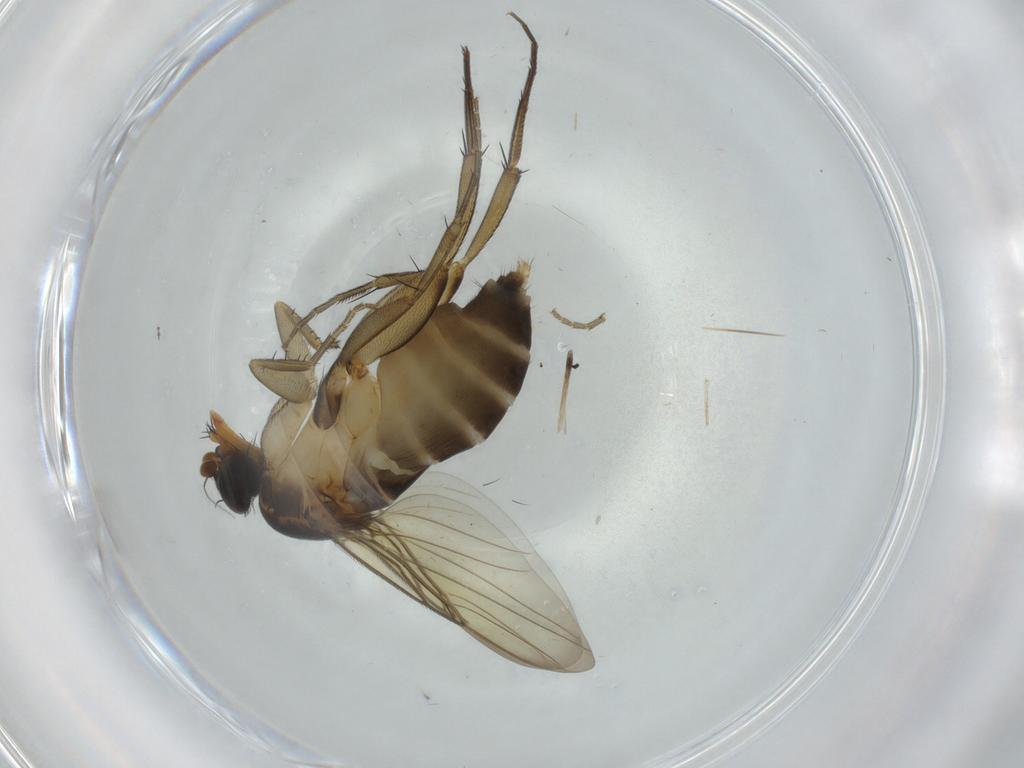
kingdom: Animalia
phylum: Arthropoda
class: Insecta
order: Diptera
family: Phoridae
